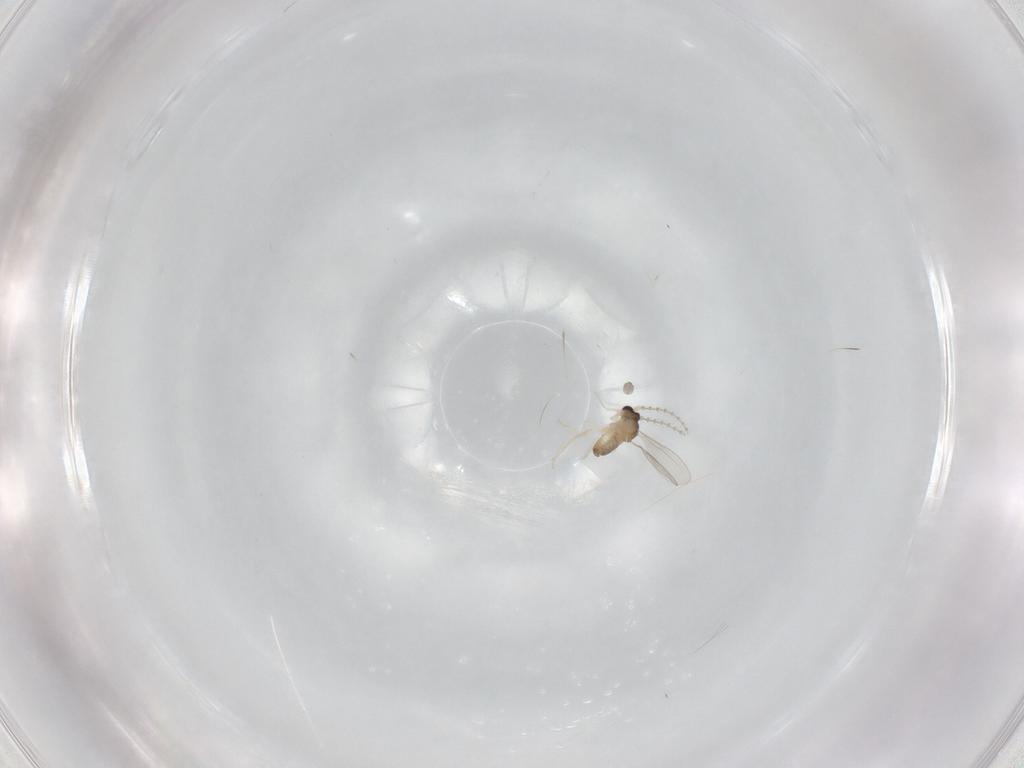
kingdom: Animalia
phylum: Arthropoda
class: Insecta
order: Diptera
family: Cecidomyiidae
